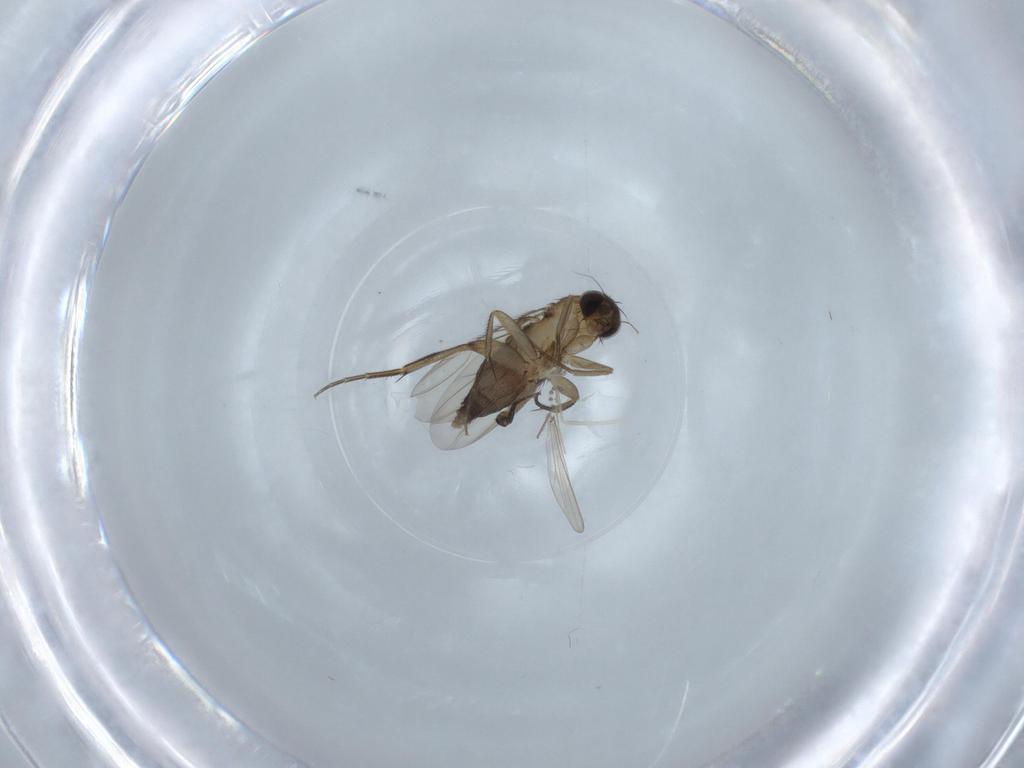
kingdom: Animalia
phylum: Arthropoda
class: Insecta
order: Diptera
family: Phoridae
